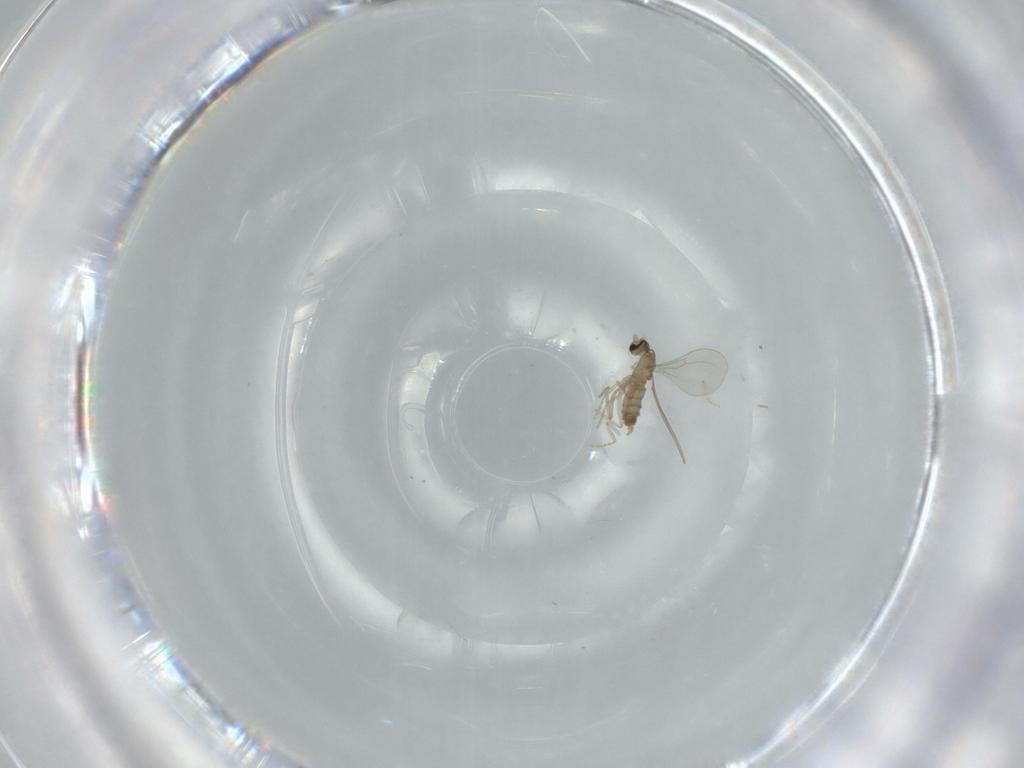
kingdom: Animalia
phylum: Arthropoda
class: Insecta
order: Diptera
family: Cecidomyiidae
